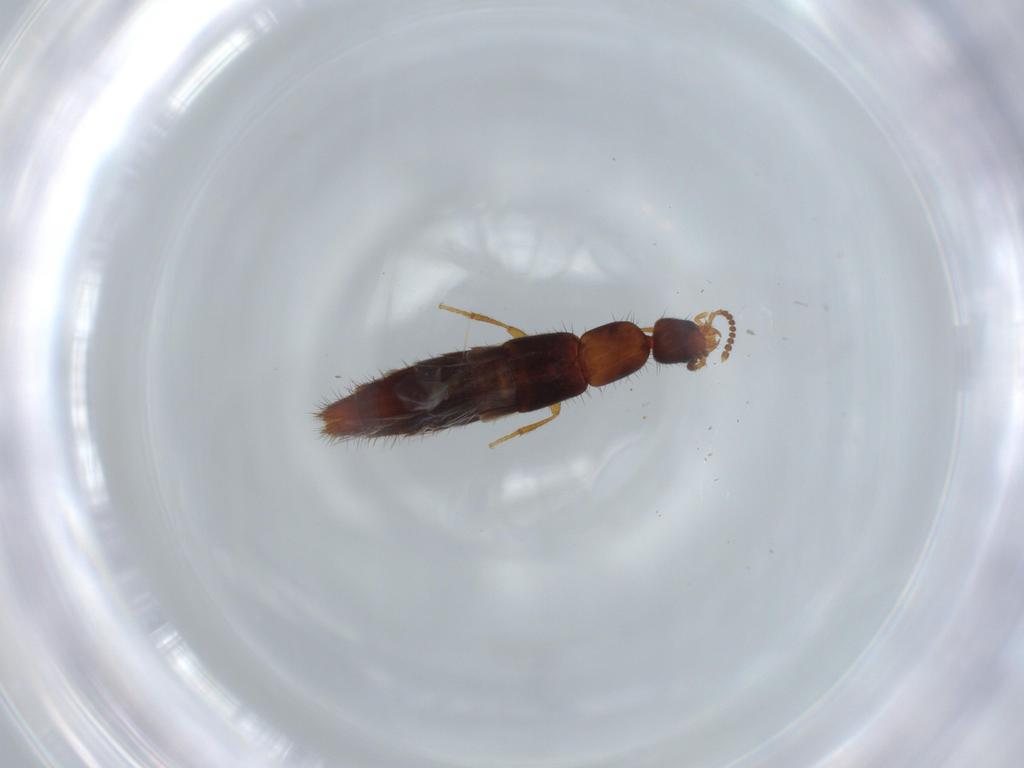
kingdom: Animalia
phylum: Arthropoda
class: Insecta
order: Coleoptera
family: Staphylinidae
